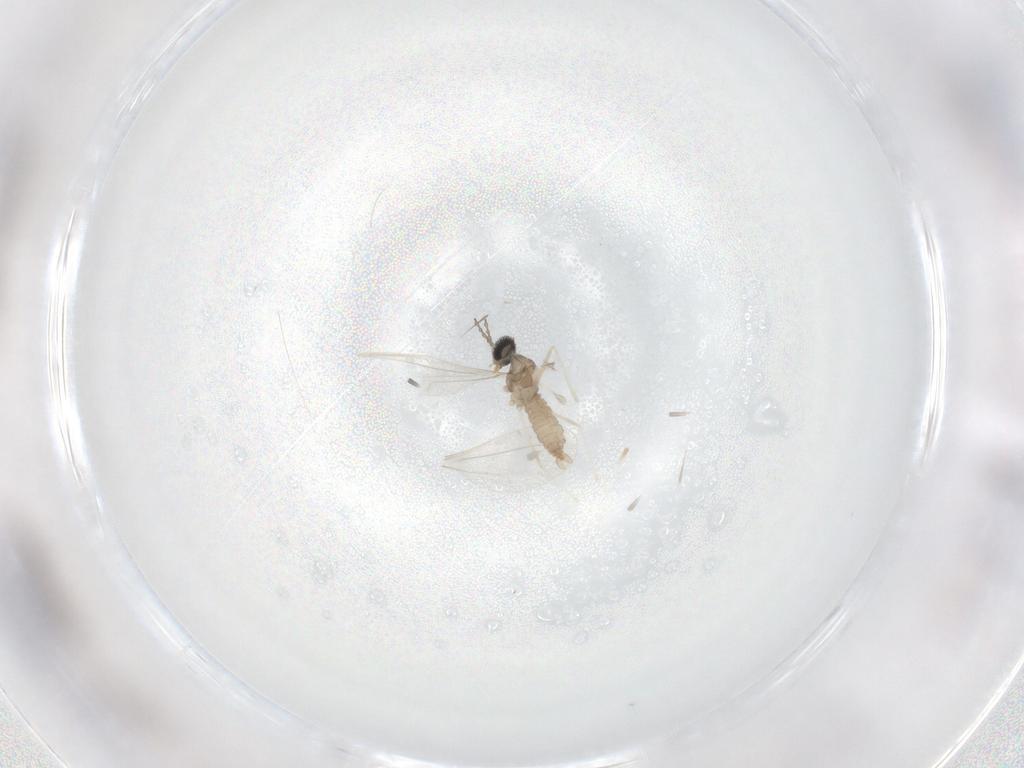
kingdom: Animalia
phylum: Arthropoda
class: Insecta
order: Diptera
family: Cecidomyiidae
